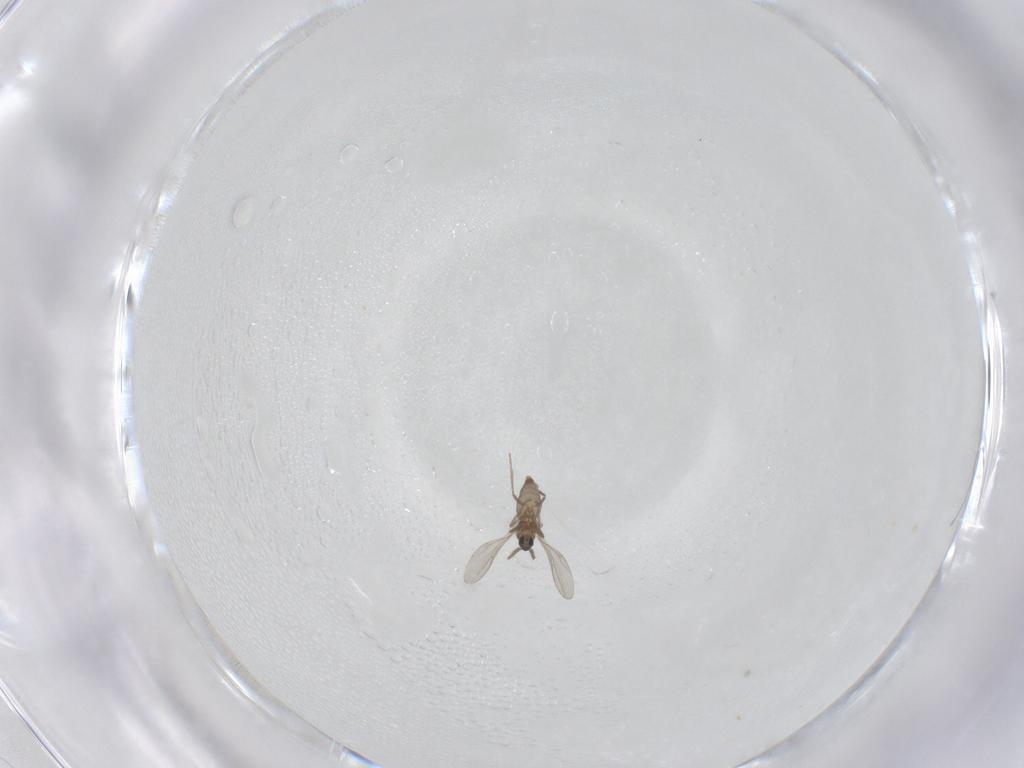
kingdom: Animalia
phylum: Arthropoda
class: Insecta
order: Diptera
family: Cecidomyiidae
